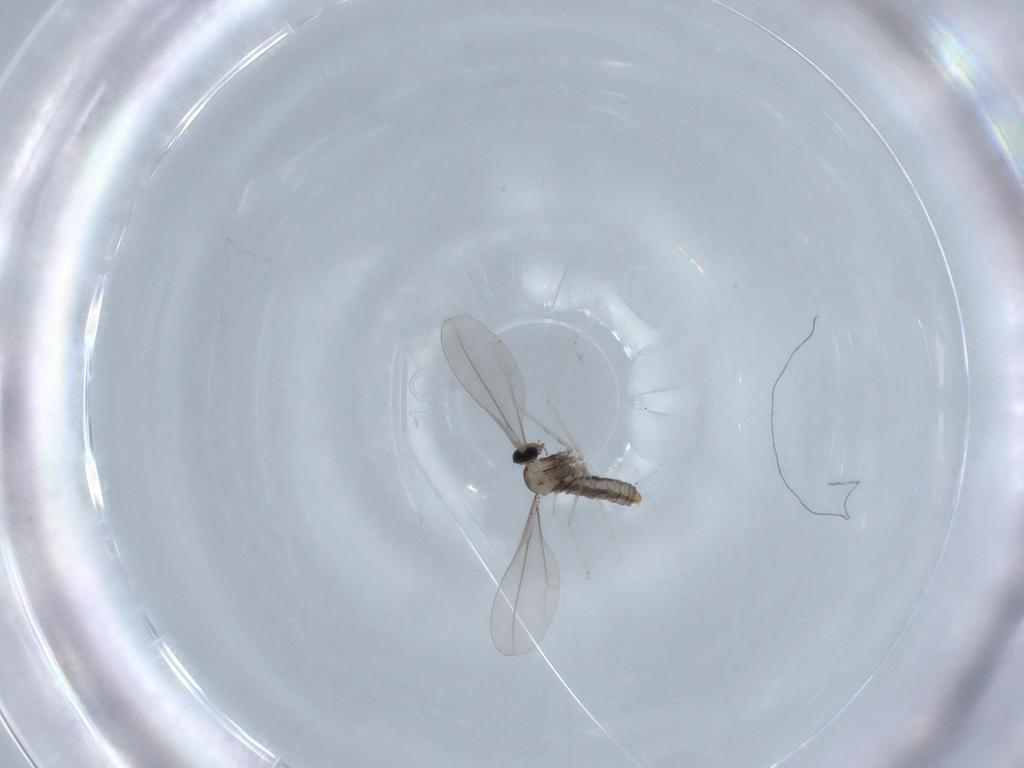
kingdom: Animalia
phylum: Arthropoda
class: Insecta
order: Diptera
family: Cecidomyiidae
